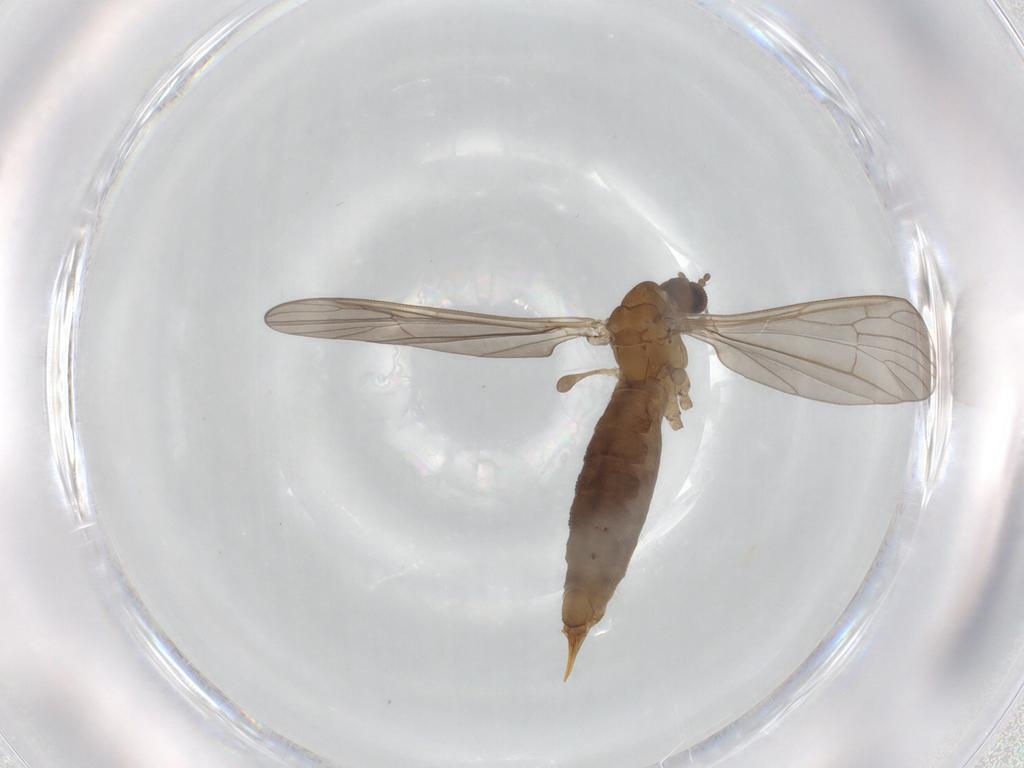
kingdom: Animalia
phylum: Arthropoda
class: Insecta
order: Diptera
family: Limoniidae
